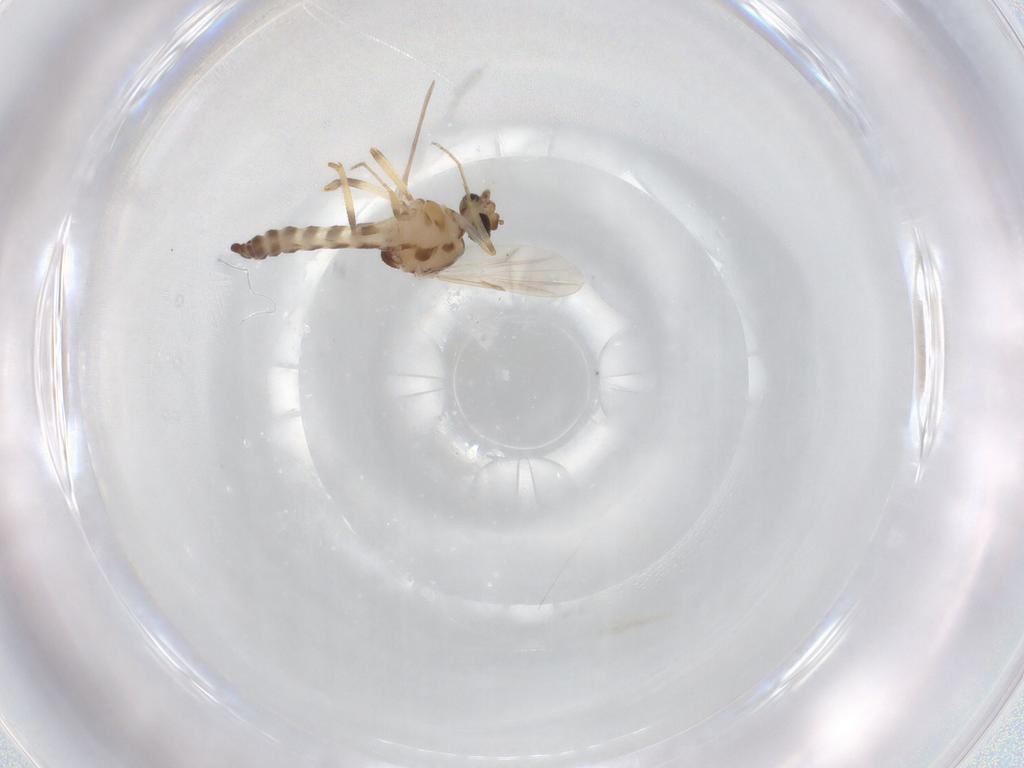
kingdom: Animalia
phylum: Arthropoda
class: Insecta
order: Diptera
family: Ceratopogonidae
